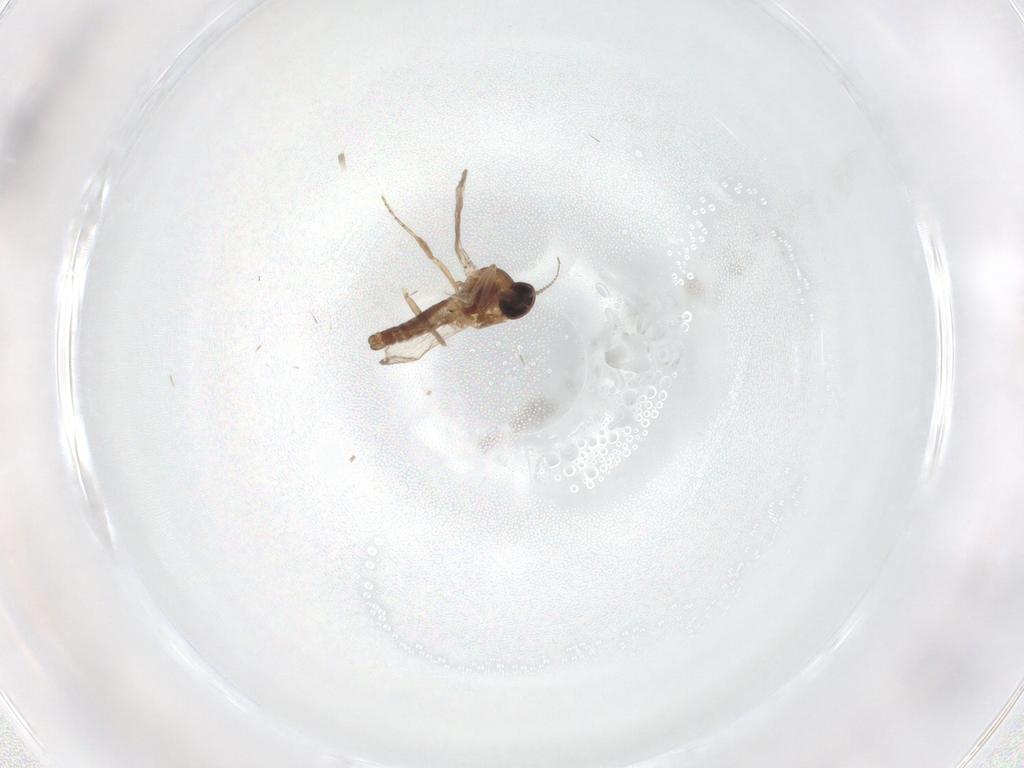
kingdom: Animalia
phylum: Arthropoda
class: Insecta
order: Diptera
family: Chironomidae
